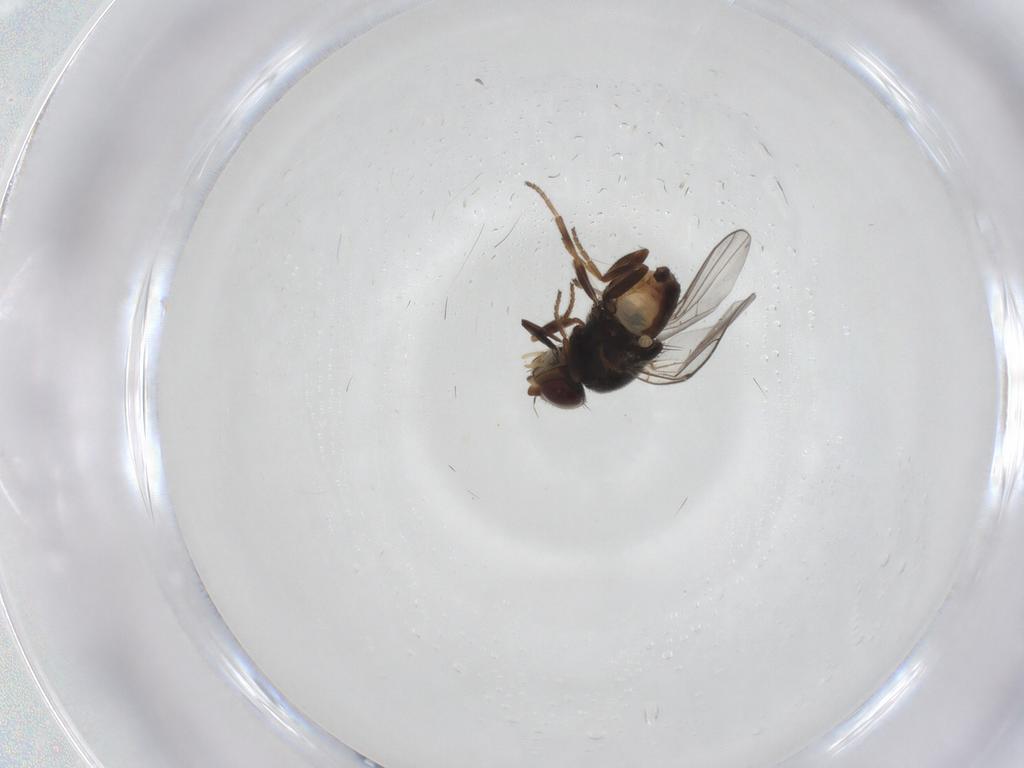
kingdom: Animalia
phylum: Arthropoda
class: Insecta
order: Diptera
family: Chloropidae
